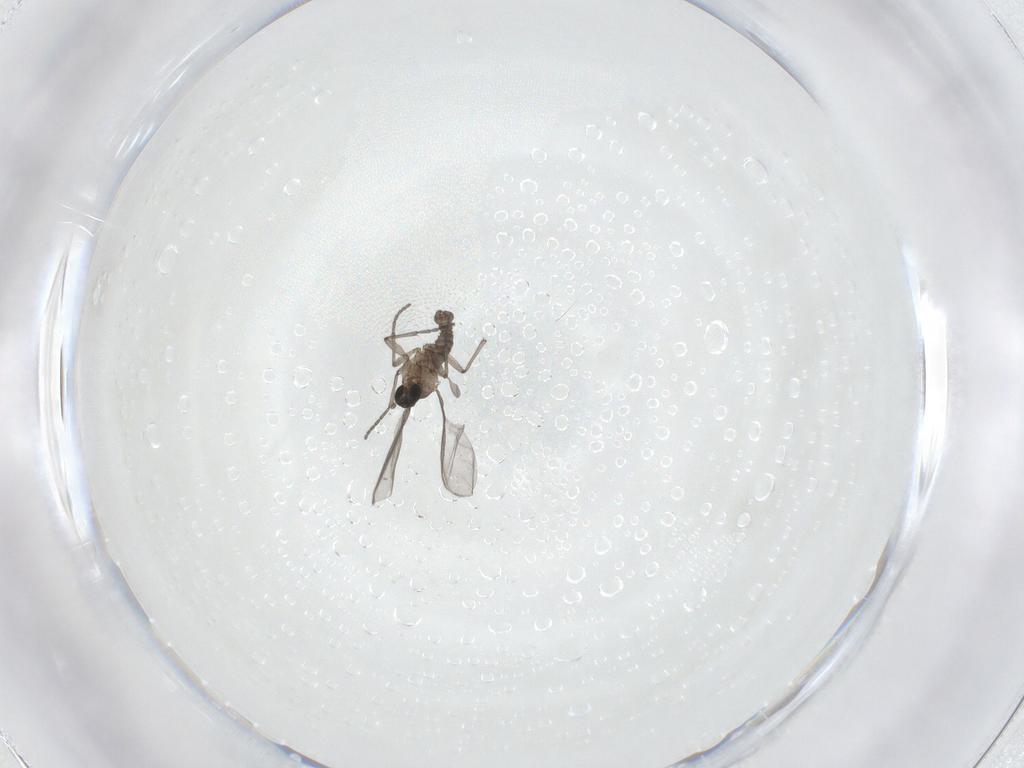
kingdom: Animalia
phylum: Arthropoda
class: Insecta
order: Diptera
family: Sciaridae
